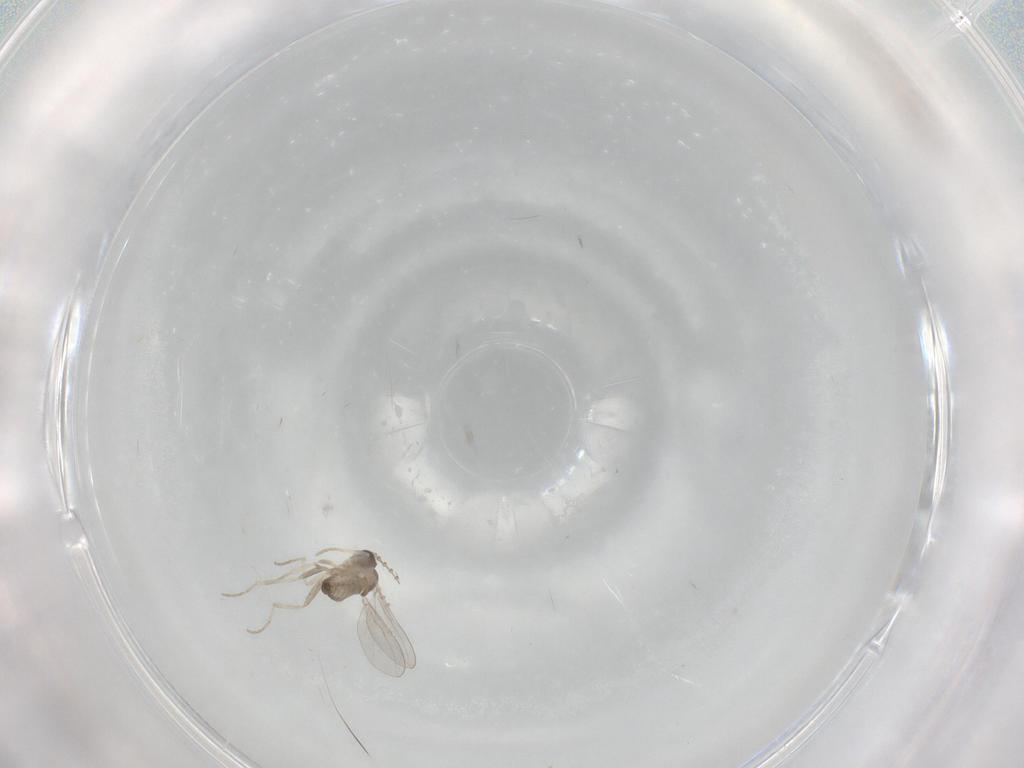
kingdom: Animalia
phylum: Arthropoda
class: Insecta
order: Diptera
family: Cecidomyiidae
